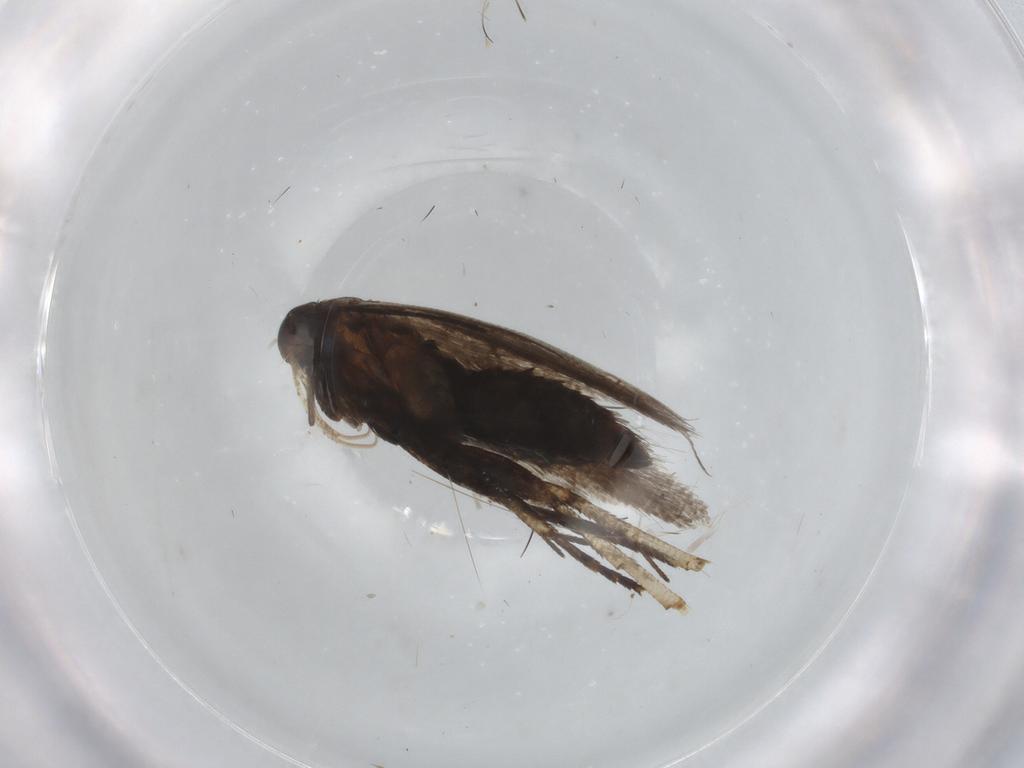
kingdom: Animalia
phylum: Arthropoda
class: Insecta
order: Lepidoptera
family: Gelechiidae
